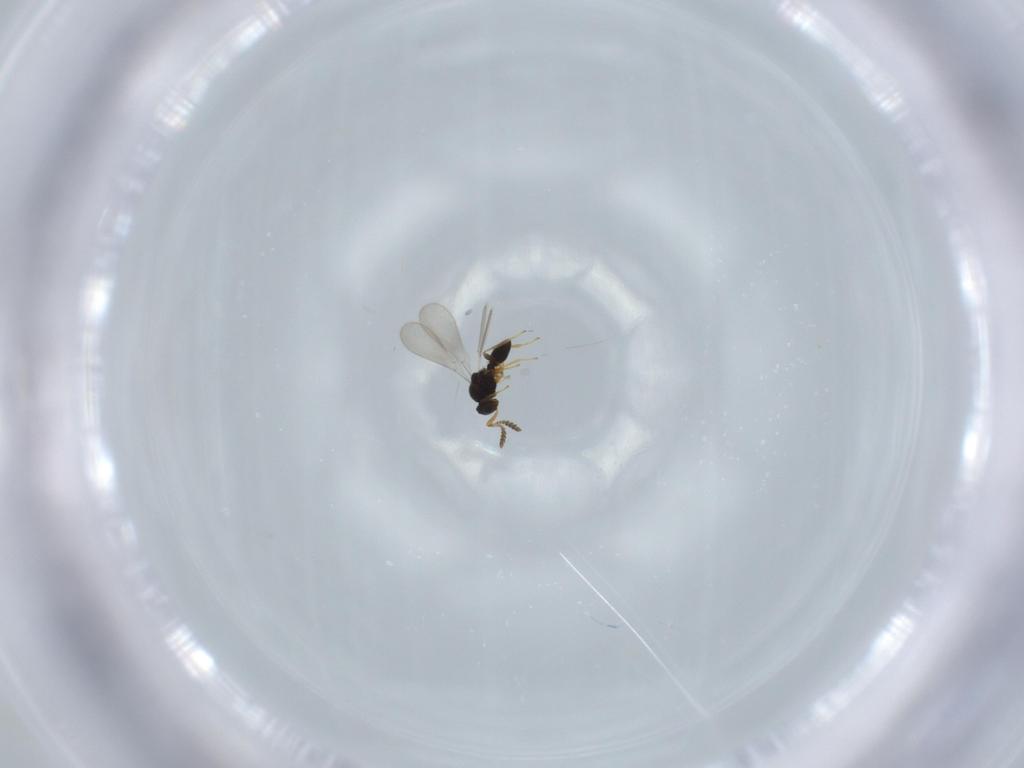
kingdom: Animalia
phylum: Arthropoda
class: Insecta
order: Hymenoptera
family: Platygastridae
